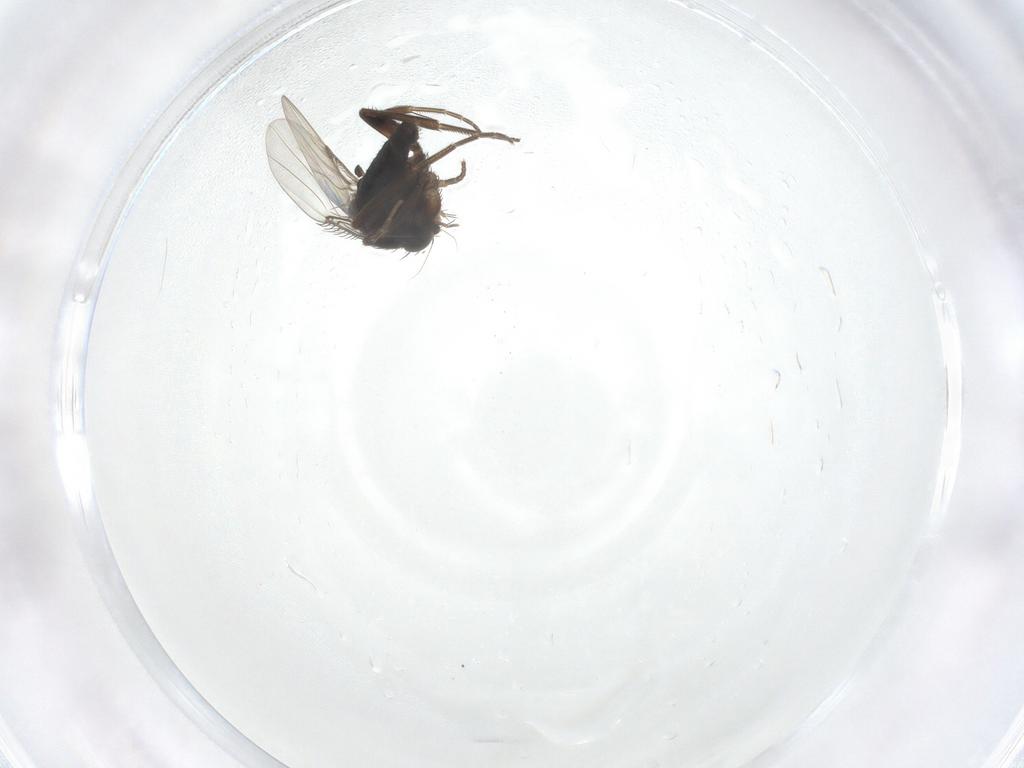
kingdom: Animalia
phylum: Arthropoda
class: Insecta
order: Diptera
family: Phoridae
